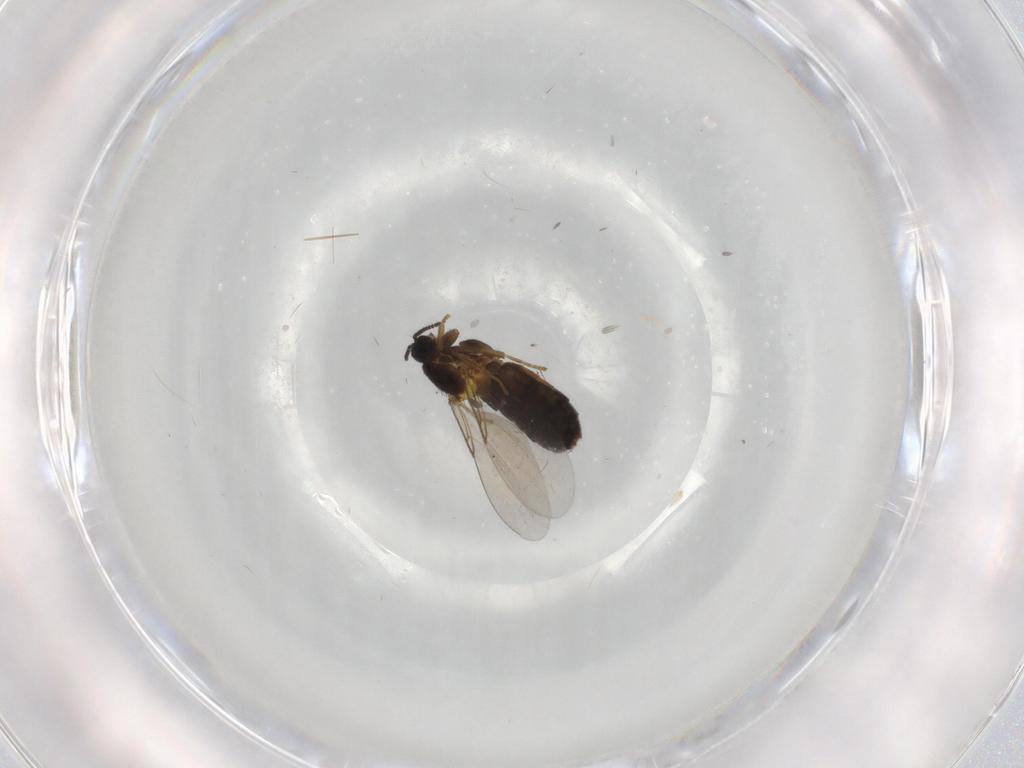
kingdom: Animalia
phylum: Arthropoda
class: Insecta
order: Diptera
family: Scatopsidae
